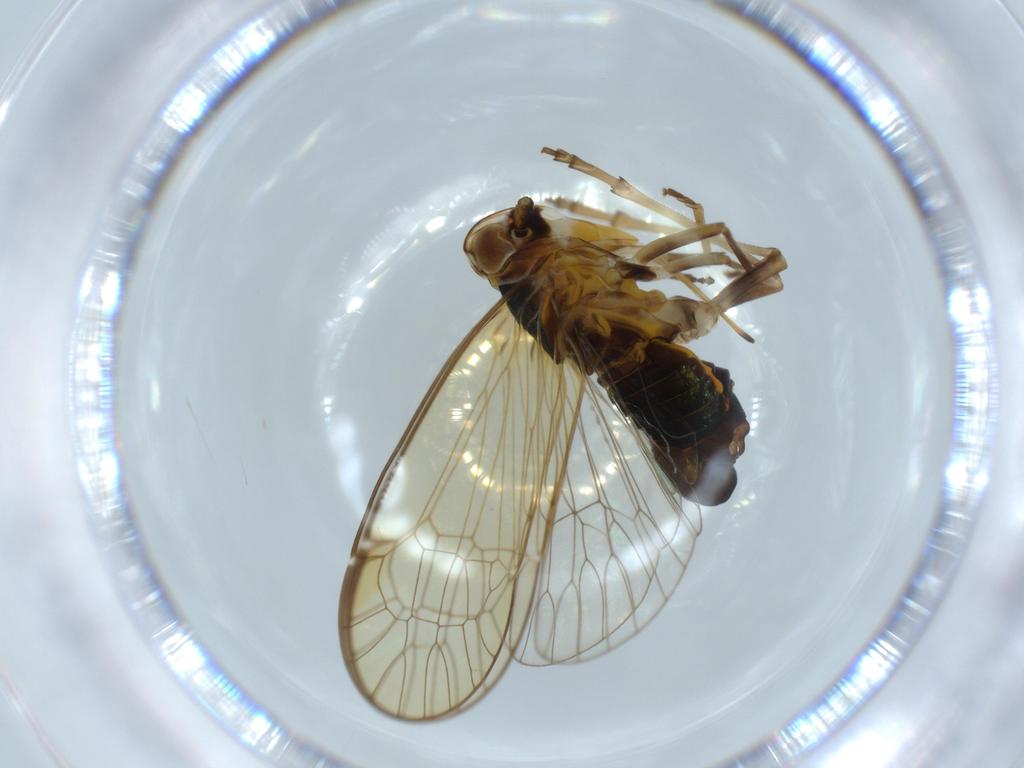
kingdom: Animalia
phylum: Arthropoda
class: Insecta
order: Hemiptera
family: Kinnaridae
